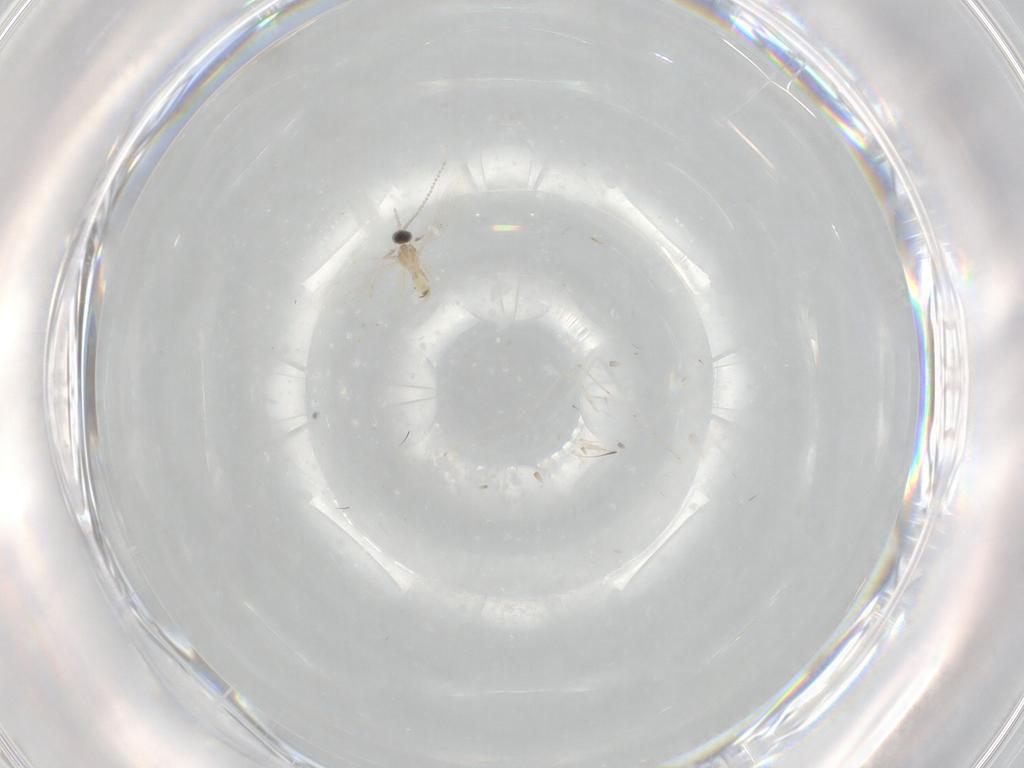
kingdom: Animalia
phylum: Arthropoda
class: Insecta
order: Diptera
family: Cecidomyiidae
